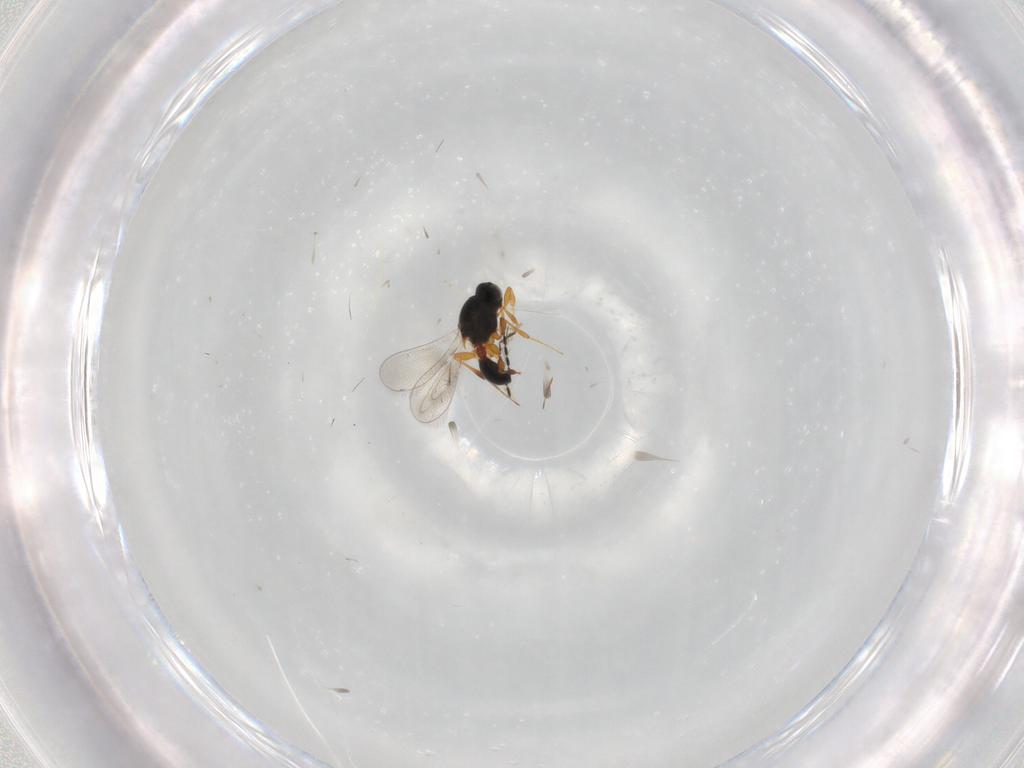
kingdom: Animalia
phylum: Arthropoda
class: Insecta
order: Hymenoptera
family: Platygastridae
